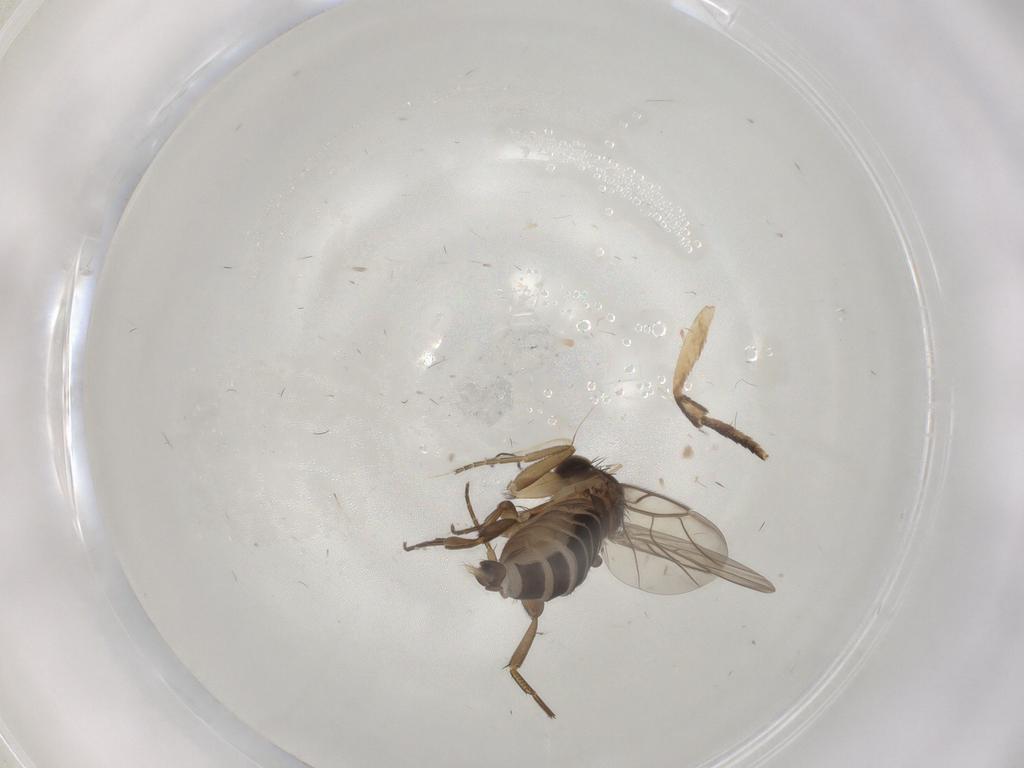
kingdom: Animalia
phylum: Arthropoda
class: Insecta
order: Diptera
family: Phoridae
